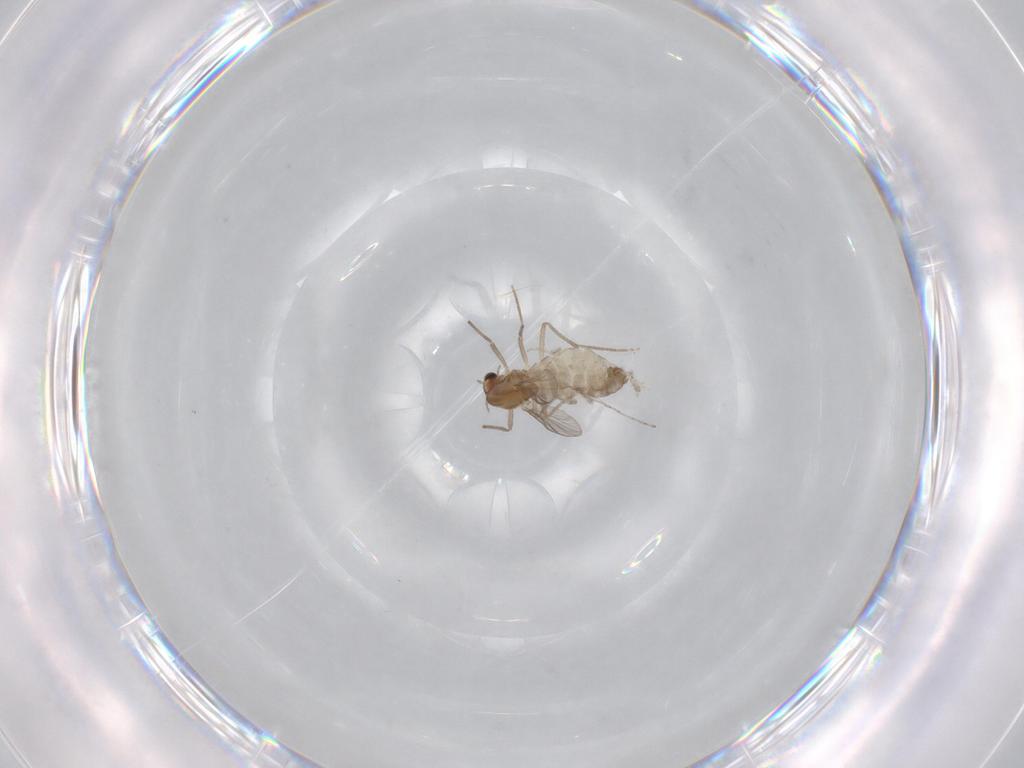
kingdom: Animalia
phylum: Arthropoda
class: Insecta
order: Diptera
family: Chironomidae
